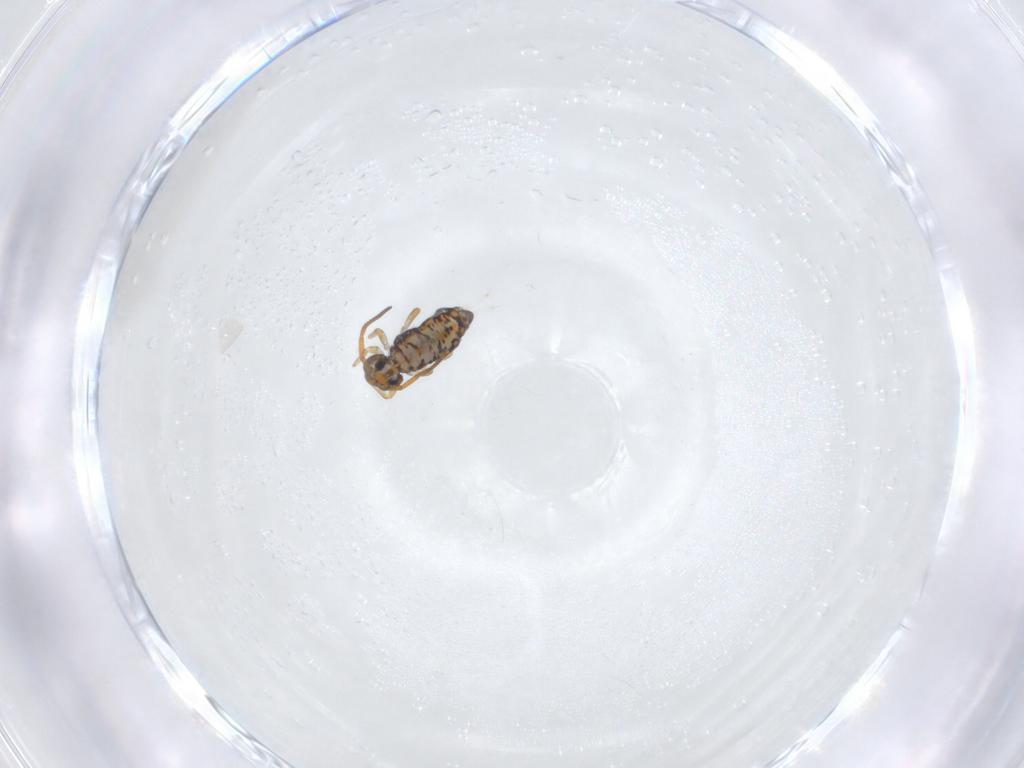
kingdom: Animalia
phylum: Arthropoda
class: Collembola
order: Symphypleona
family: Katiannidae
